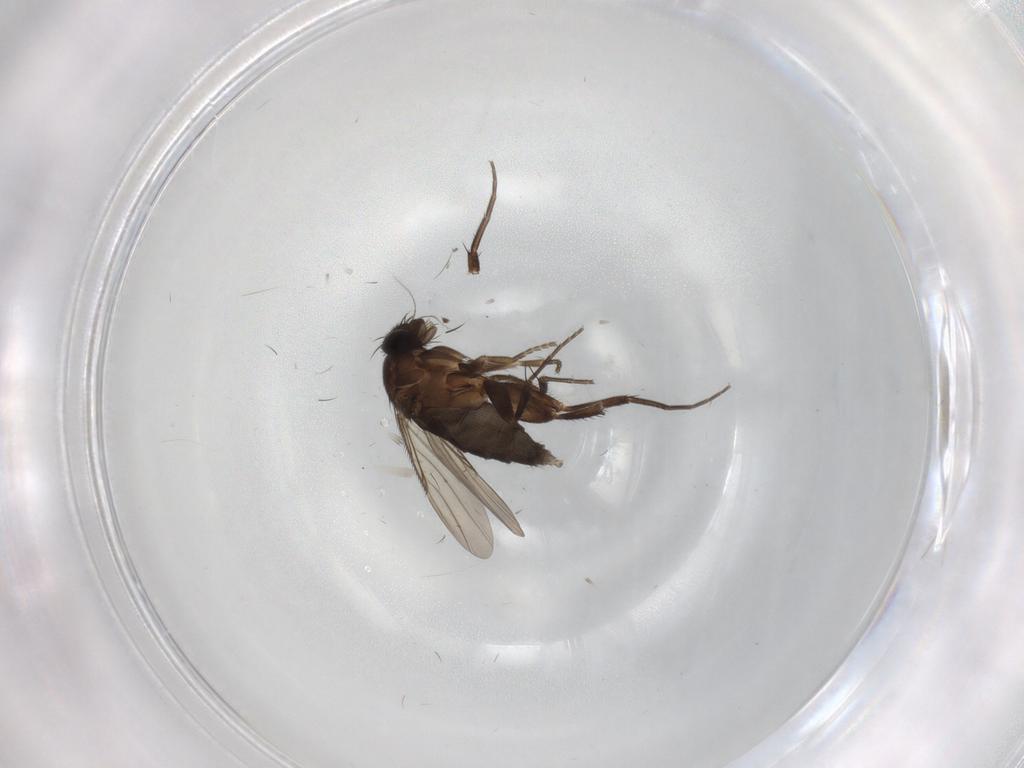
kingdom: Animalia
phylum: Arthropoda
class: Insecta
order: Diptera
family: Phoridae
